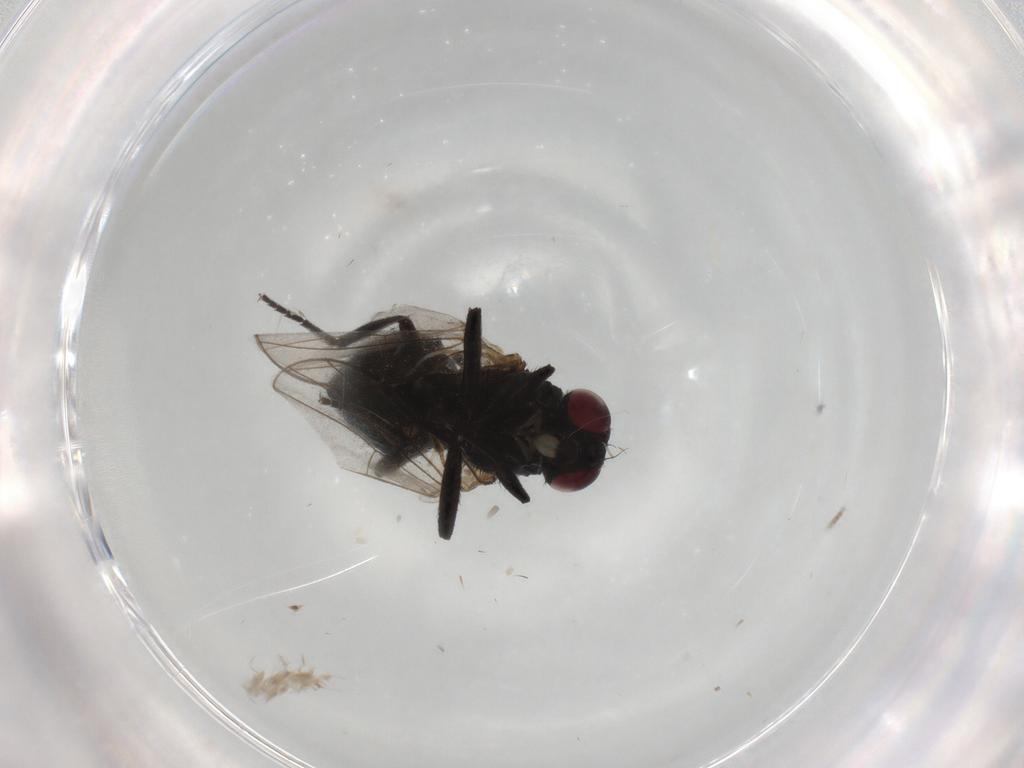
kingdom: Animalia
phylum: Arthropoda
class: Insecta
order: Diptera
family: Agromyzidae
